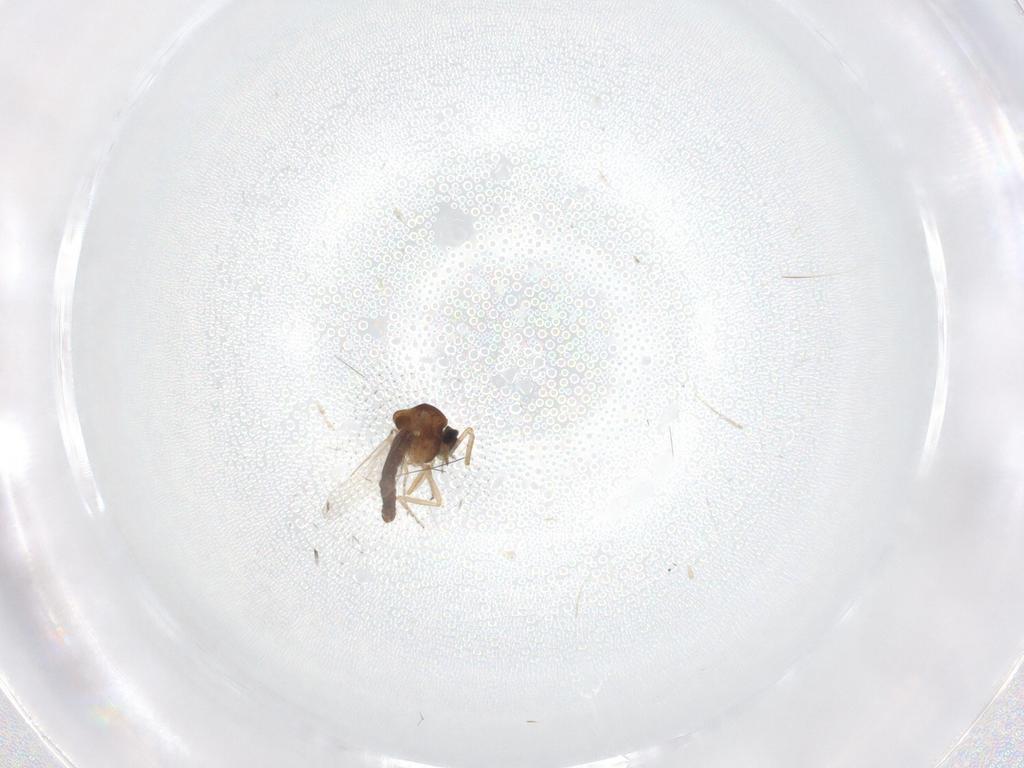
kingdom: Animalia
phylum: Arthropoda
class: Insecta
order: Diptera
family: Ceratopogonidae
